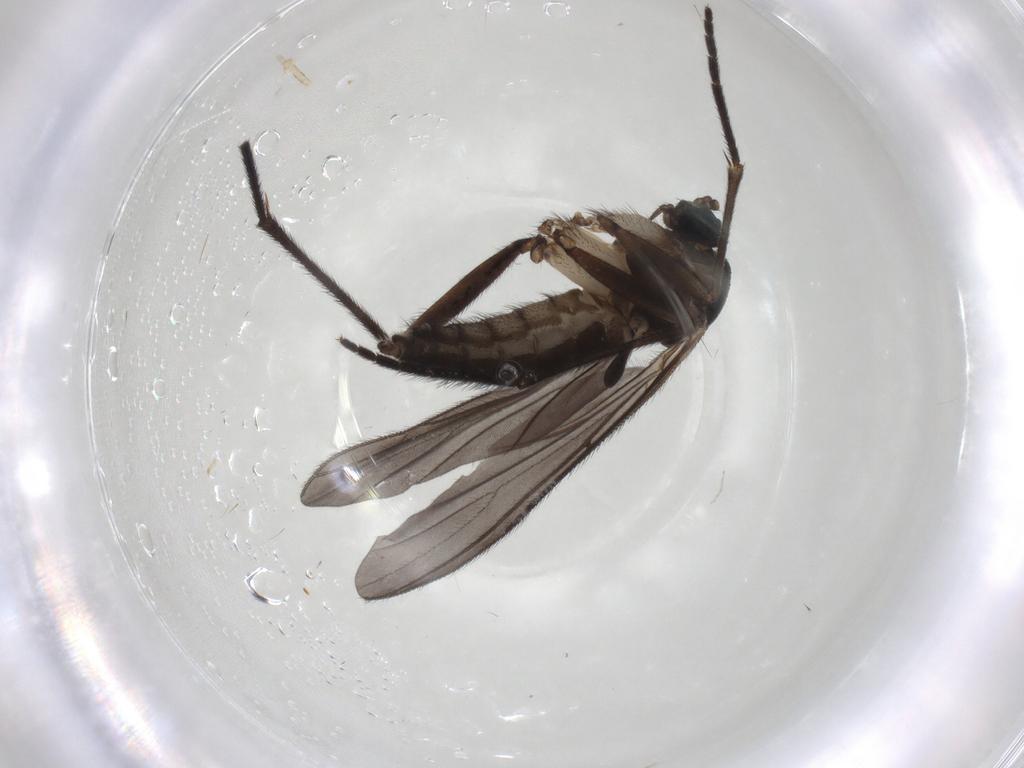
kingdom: Animalia
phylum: Arthropoda
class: Insecta
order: Diptera
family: Sciaridae
